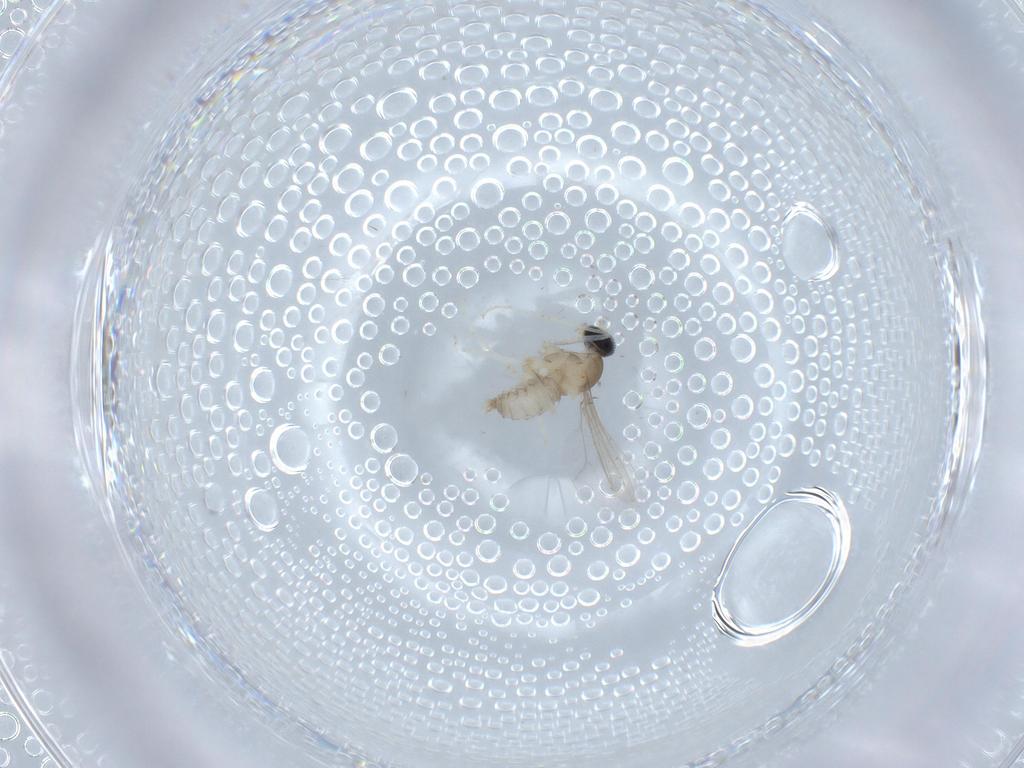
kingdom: Animalia
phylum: Arthropoda
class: Insecta
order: Diptera
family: Cecidomyiidae
